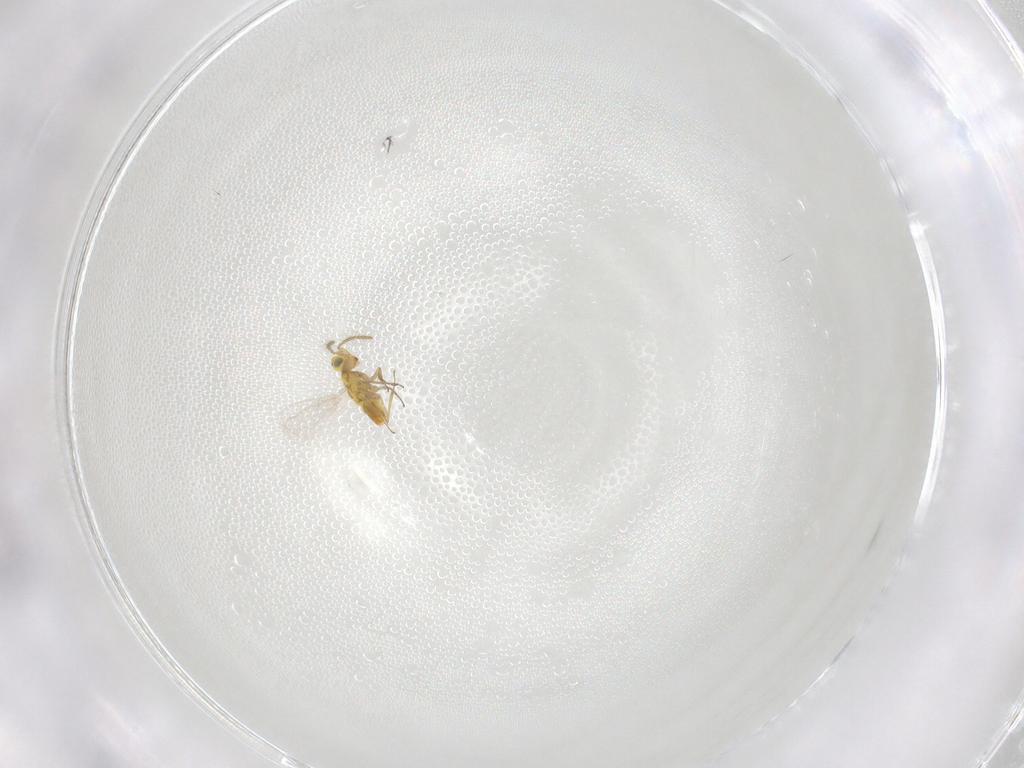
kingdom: Animalia
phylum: Arthropoda
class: Insecta
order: Hymenoptera
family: Aphelinidae
